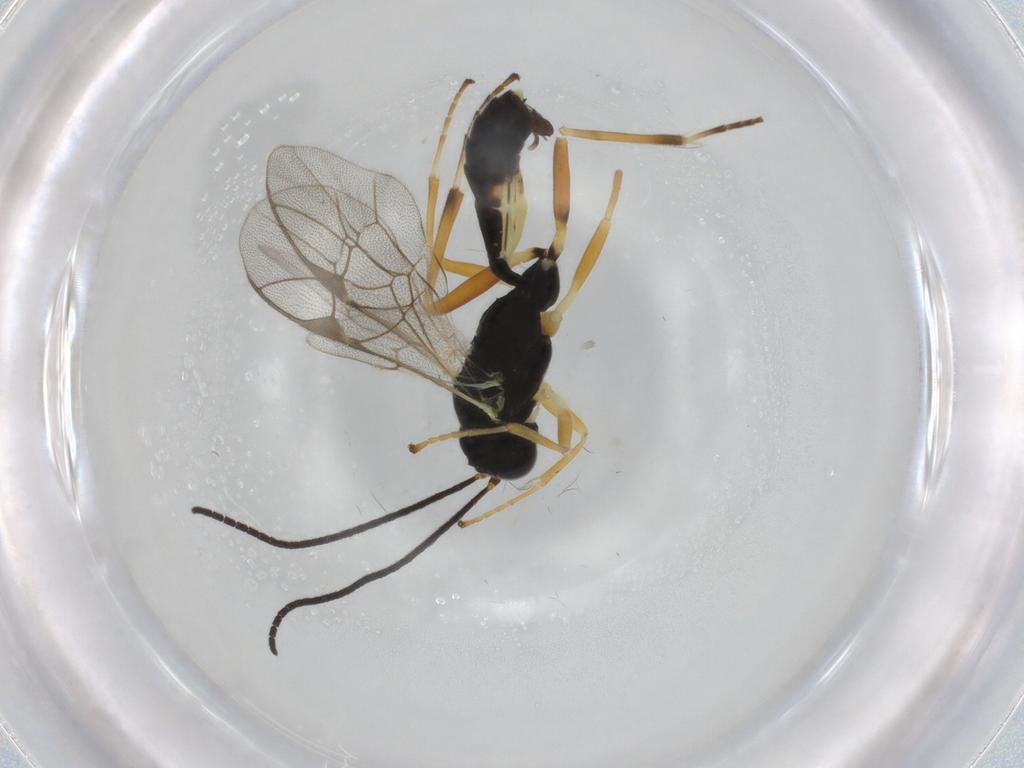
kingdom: Animalia
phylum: Arthropoda
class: Insecta
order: Hymenoptera
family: Ichneumonidae
